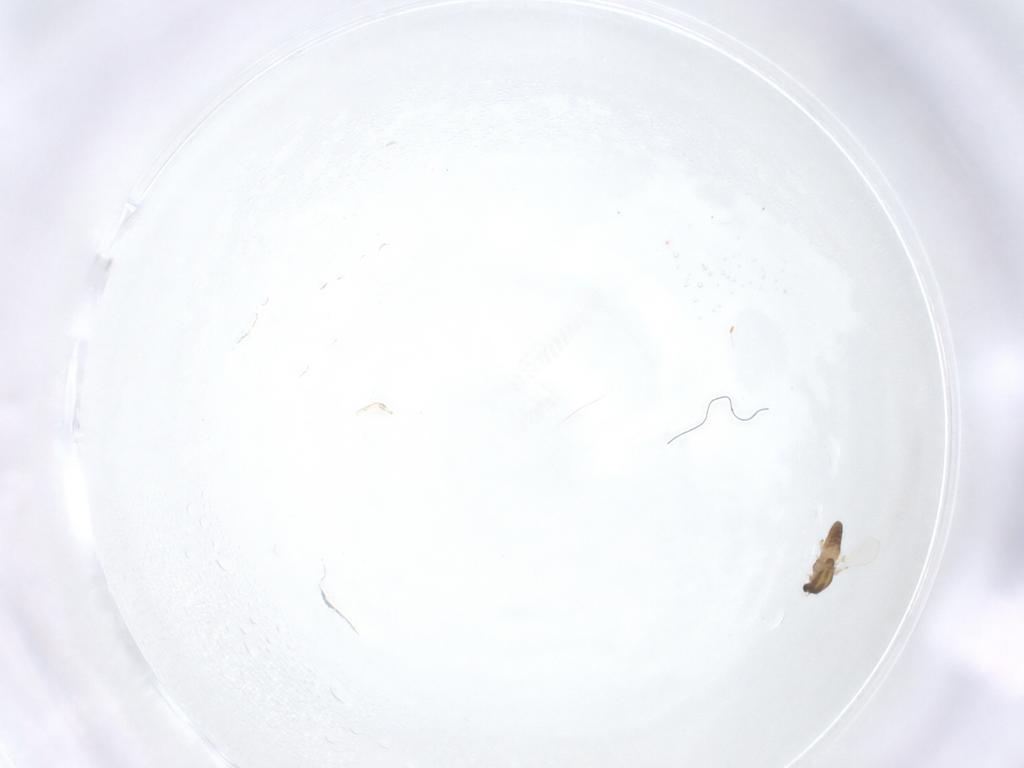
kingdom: Animalia
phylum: Arthropoda
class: Insecta
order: Diptera
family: Chironomidae
